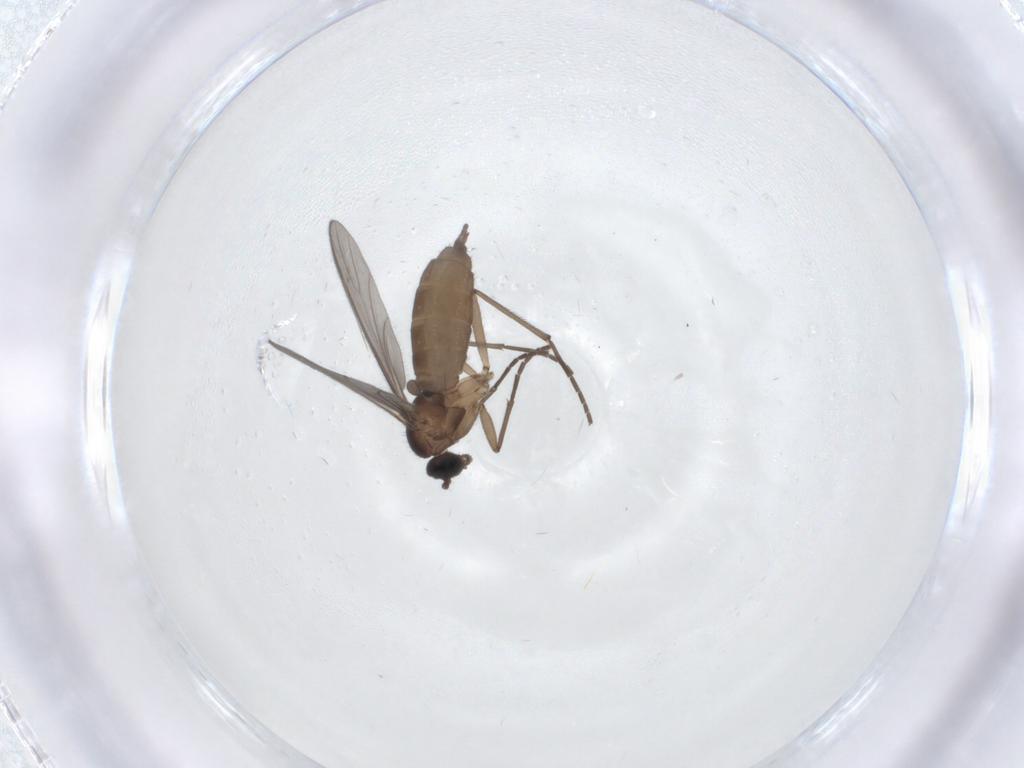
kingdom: Animalia
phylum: Arthropoda
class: Insecta
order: Diptera
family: Sciaridae
